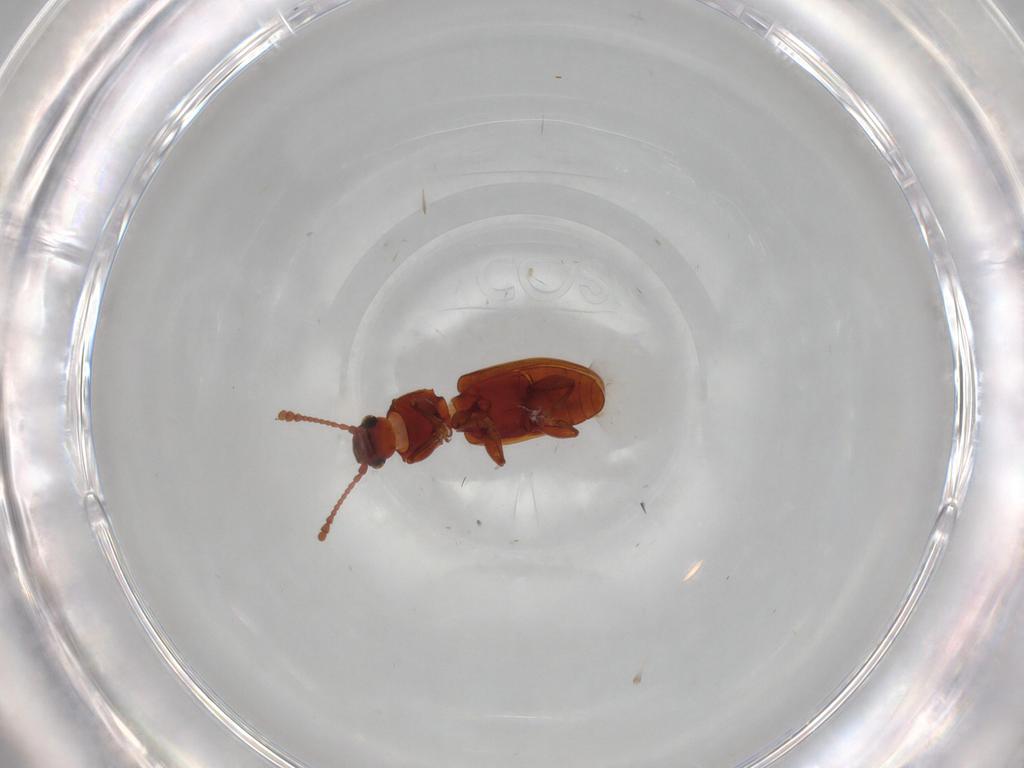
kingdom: Animalia
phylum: Arthropoda
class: Insecta
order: Coleoptera
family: Silvanidae
